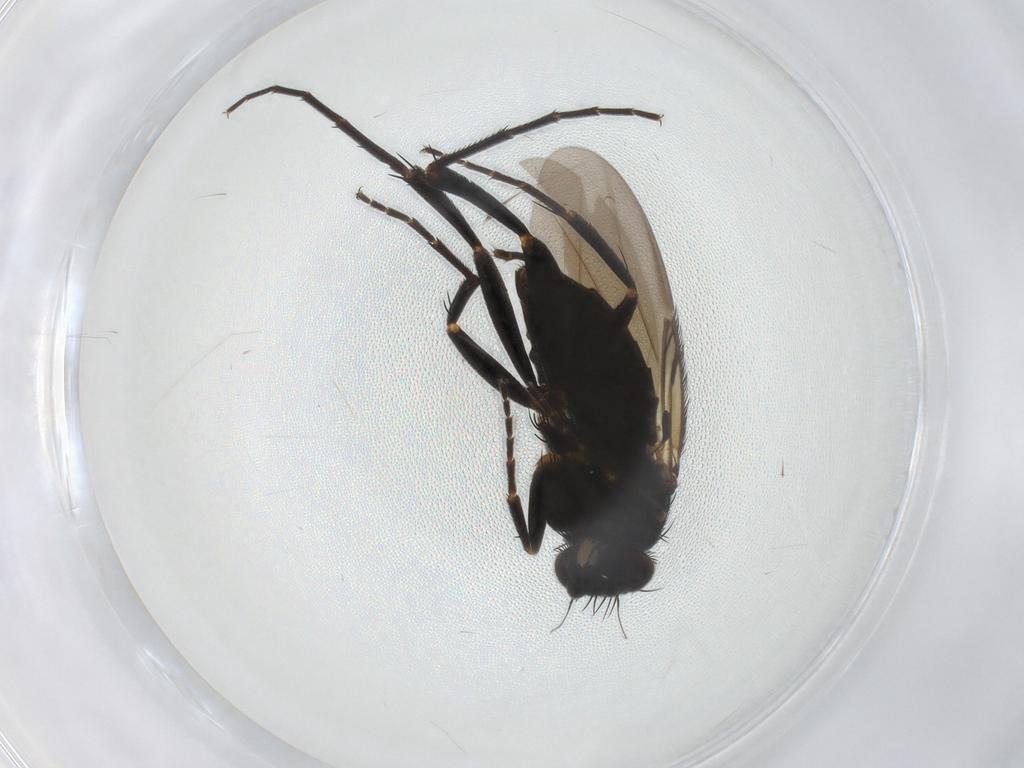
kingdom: Animalia
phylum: Arthropoda
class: Insecta
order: Diptera
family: Phoridae
